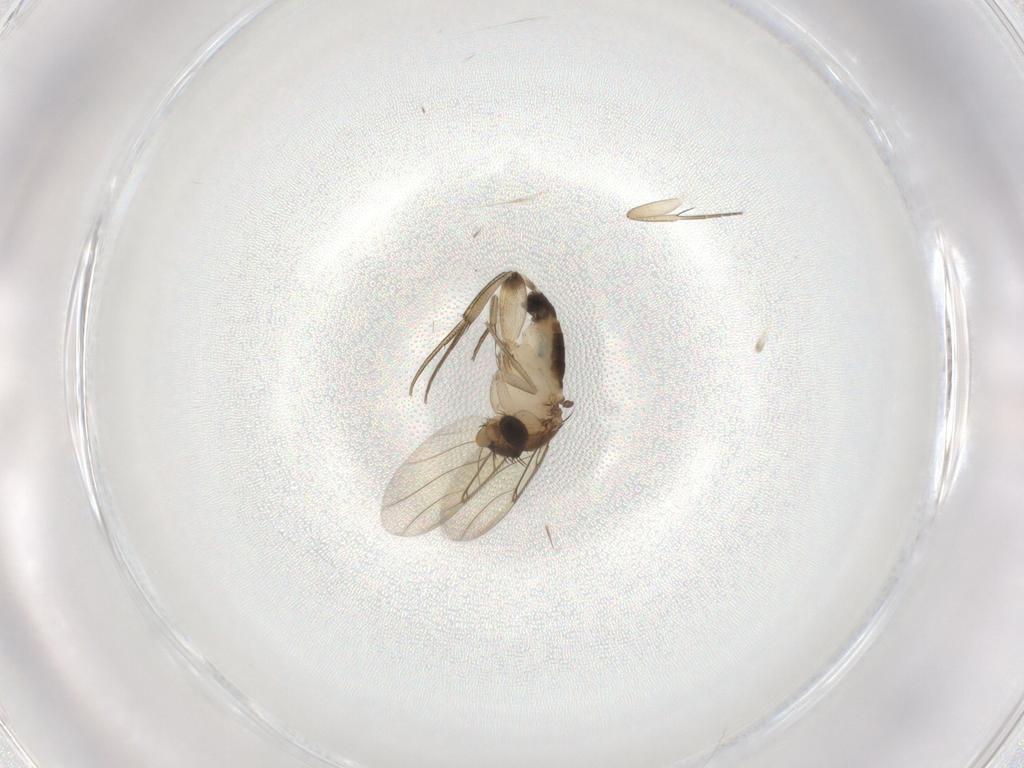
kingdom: Animalia
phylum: Arthropoda
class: Insecta
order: Diptera
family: Phoridae
